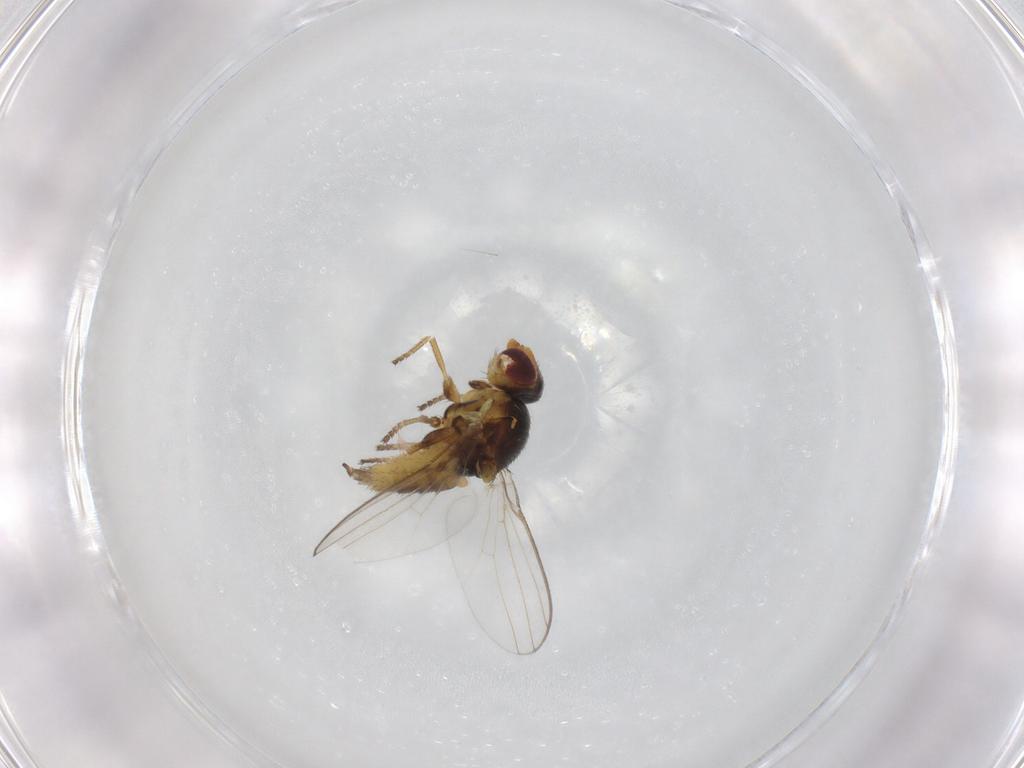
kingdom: Animalia
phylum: Arthropoda
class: Insecta
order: Diptera
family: Chloropidae
